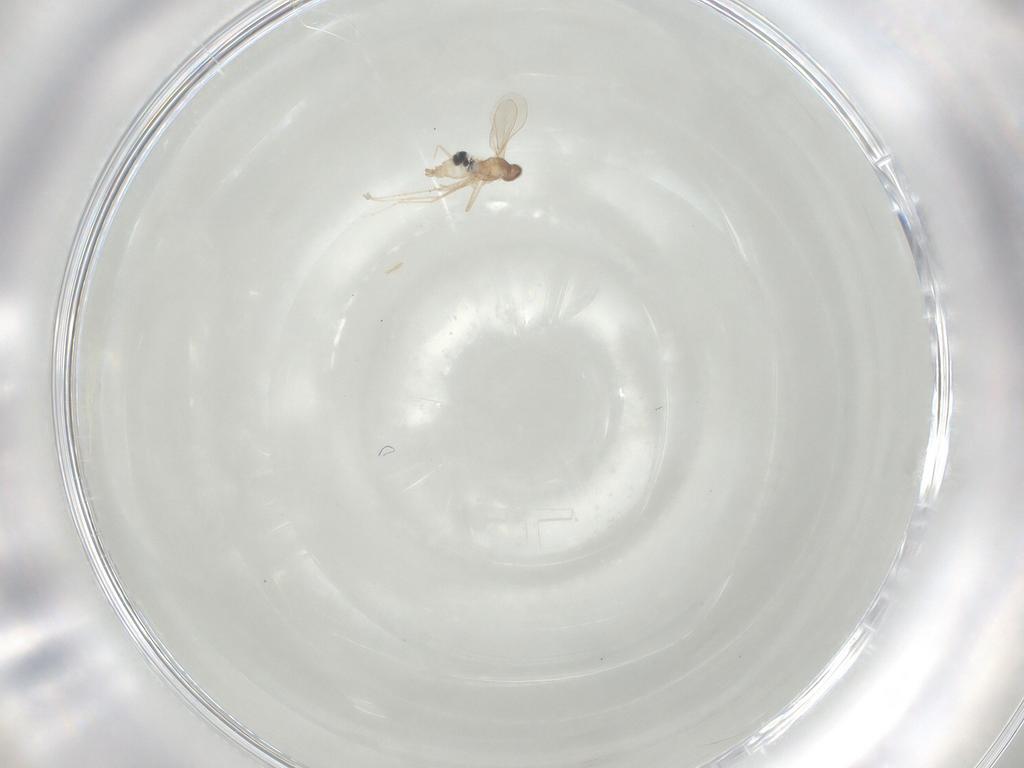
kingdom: Animalia
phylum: Arthropoda
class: Insecta
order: Diptera
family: Cecidomyiidae
